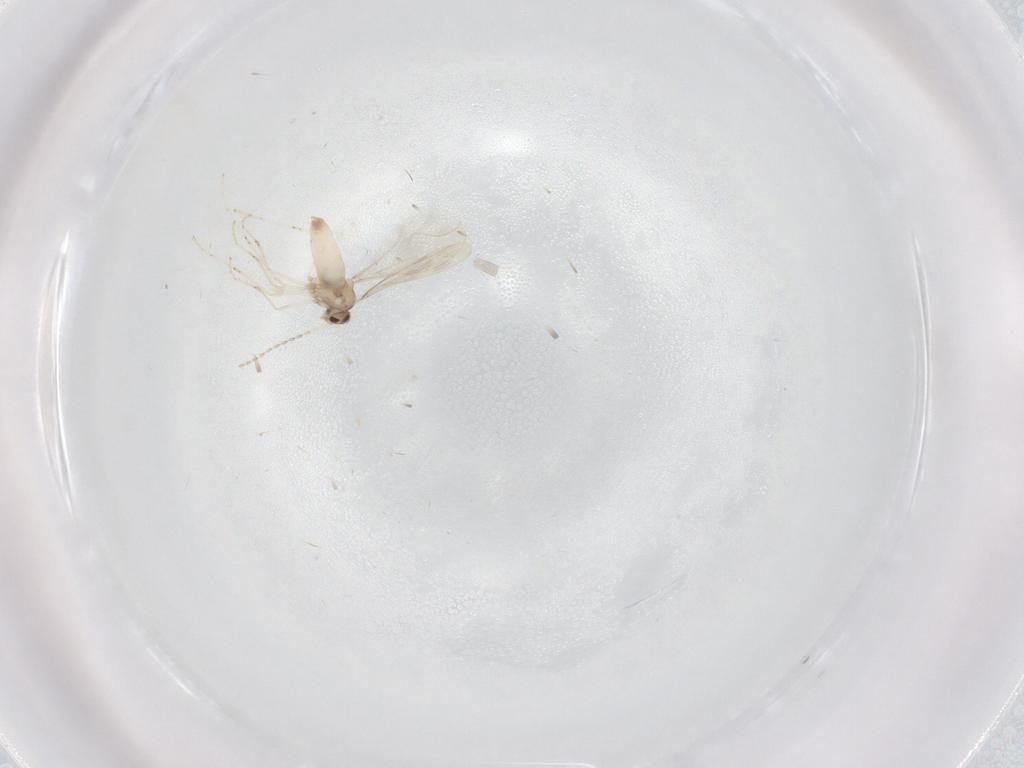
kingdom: Animalia
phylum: Arthropoda
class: Insecta
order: Diptera
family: Cecidomyiidae
